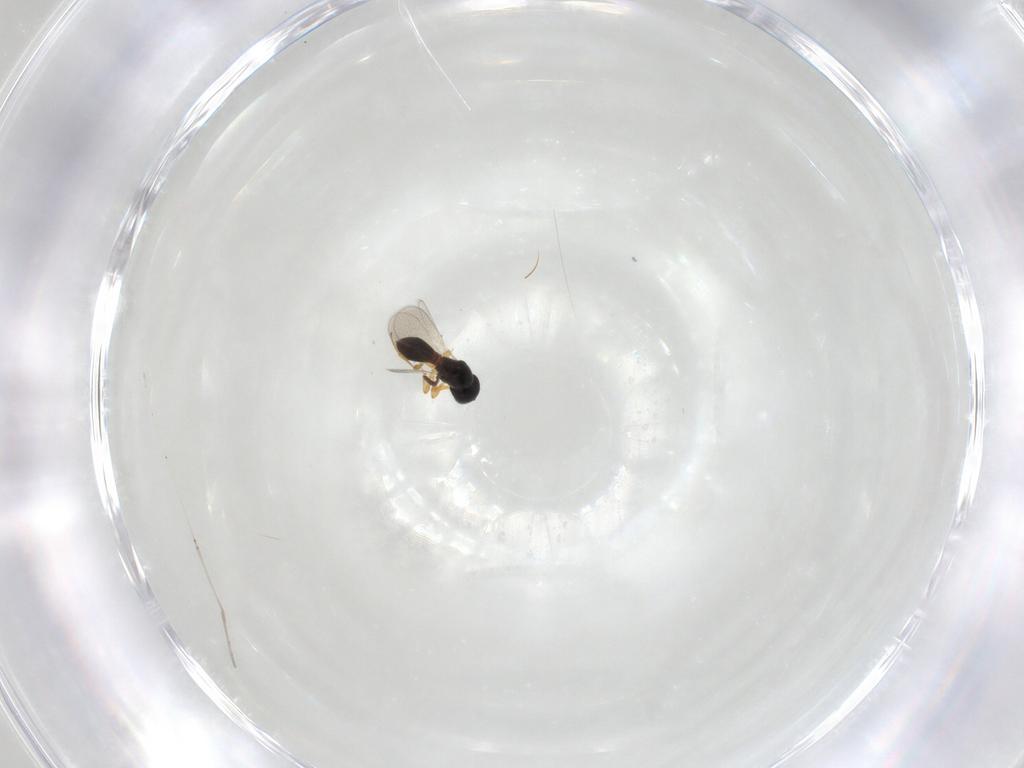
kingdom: Animalia
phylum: Arthropoda
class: Insecta
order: Hymenoptera
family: Platygastridae
